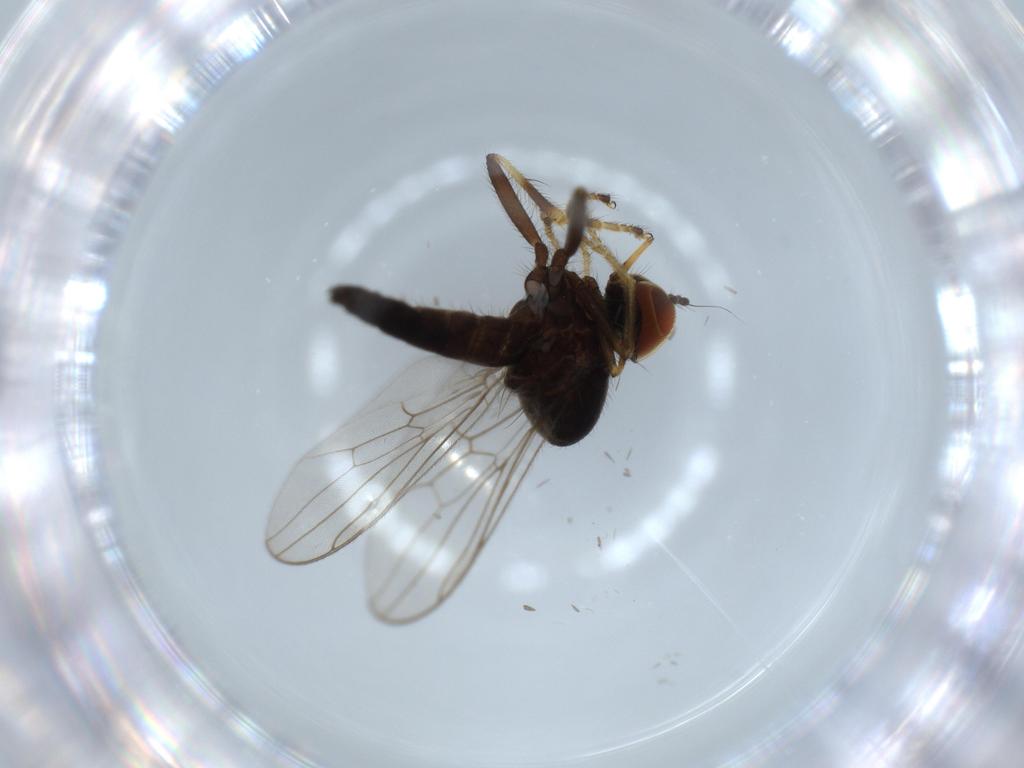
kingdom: Animalia
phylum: Arthropoda
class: Insecta
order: Diptera
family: Hybotidae
